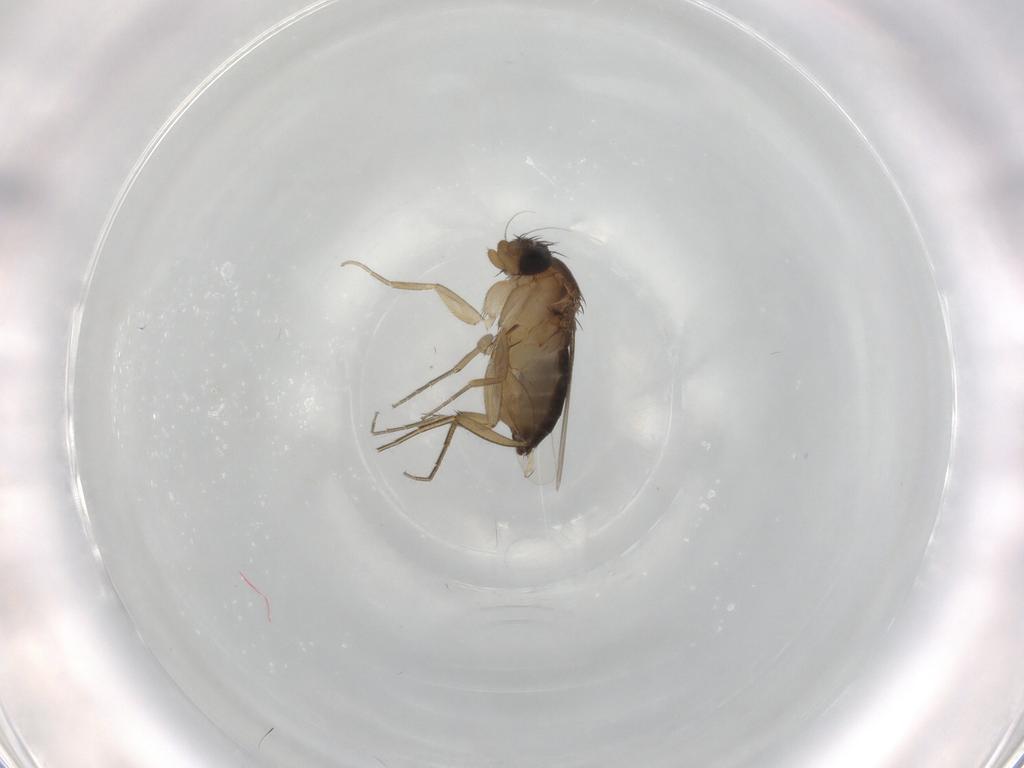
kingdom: Animalia
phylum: Arthropoda
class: Insecta
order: Diptera
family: Phoridae
